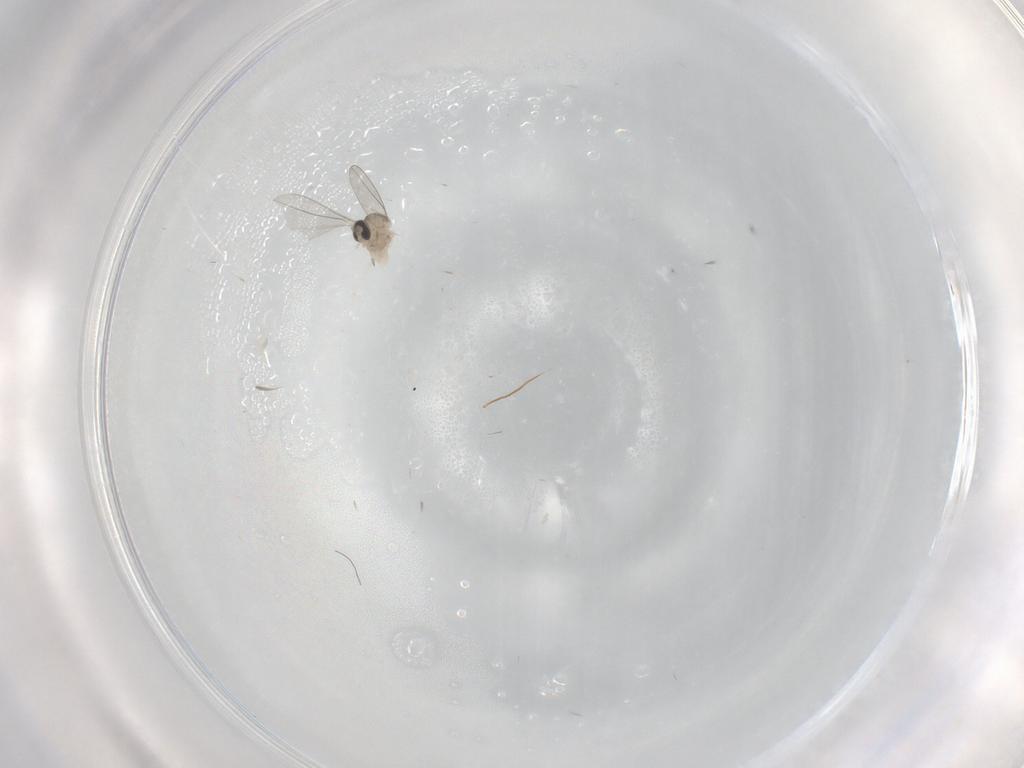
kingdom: Animalia
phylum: Arthropoda
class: Insecta
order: Diptera
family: Cecidomyiidae
